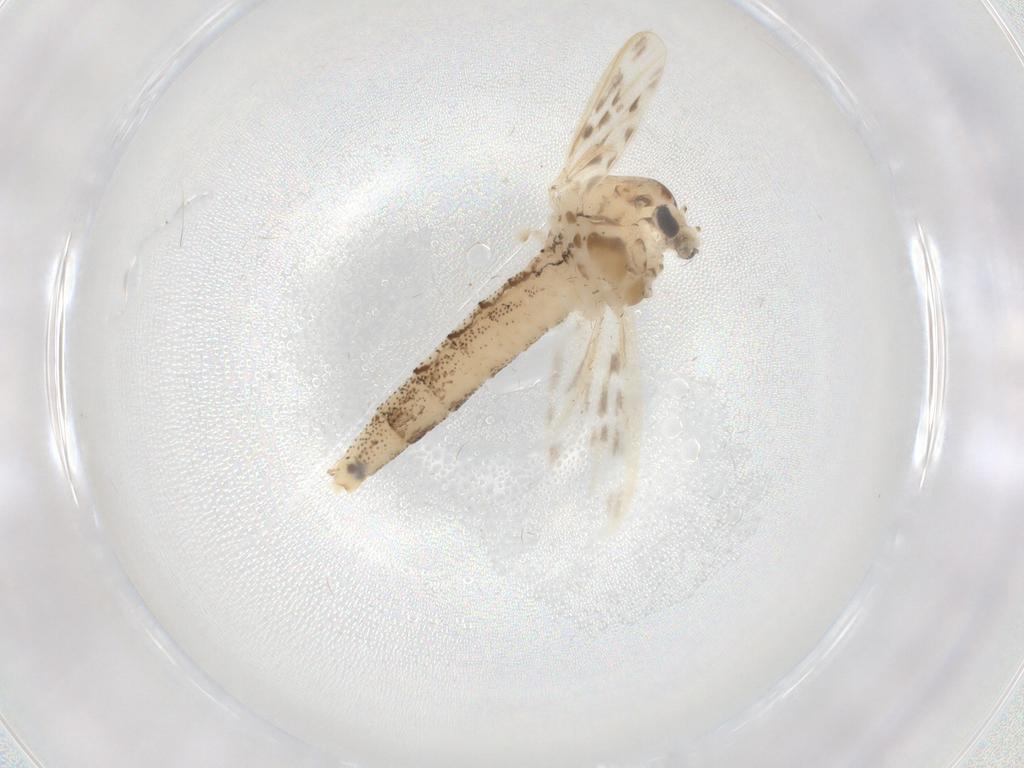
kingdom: Animalia
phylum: Arthropoda
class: Insecta
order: Diptera
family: Chaoboridae
